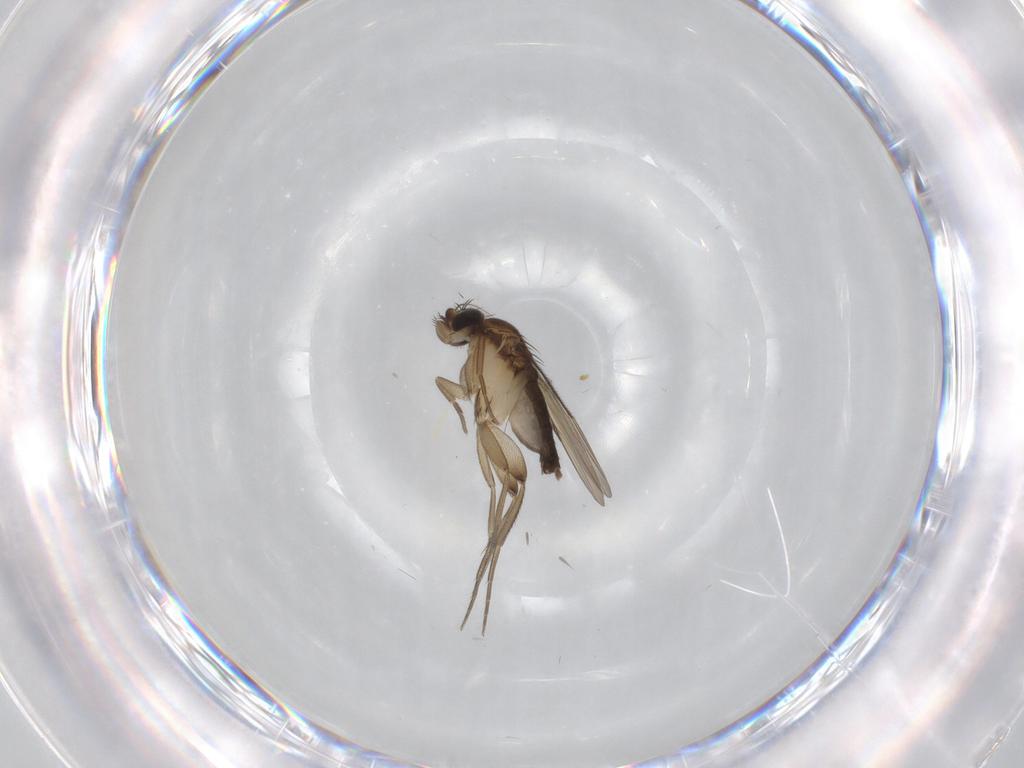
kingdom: Animalia
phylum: Arthropoda
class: Insecta
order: Diptera
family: Sciaridae
